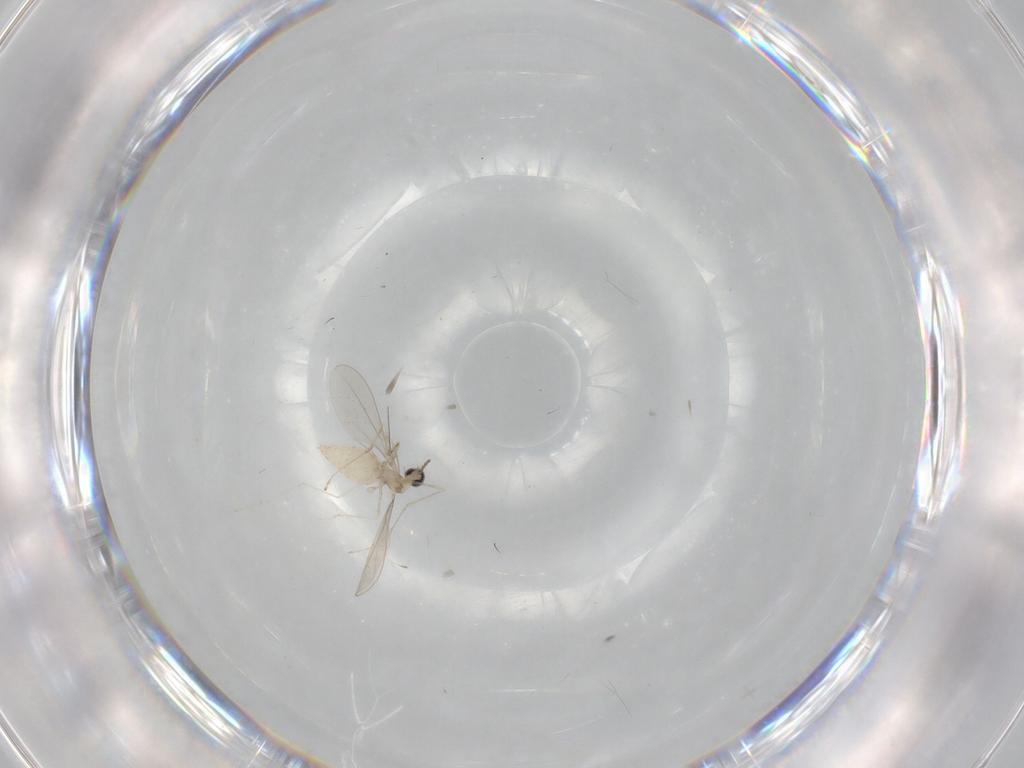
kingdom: Animalia
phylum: Arthropoda
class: Insecta
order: Diptera
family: Cecidomyiidae
